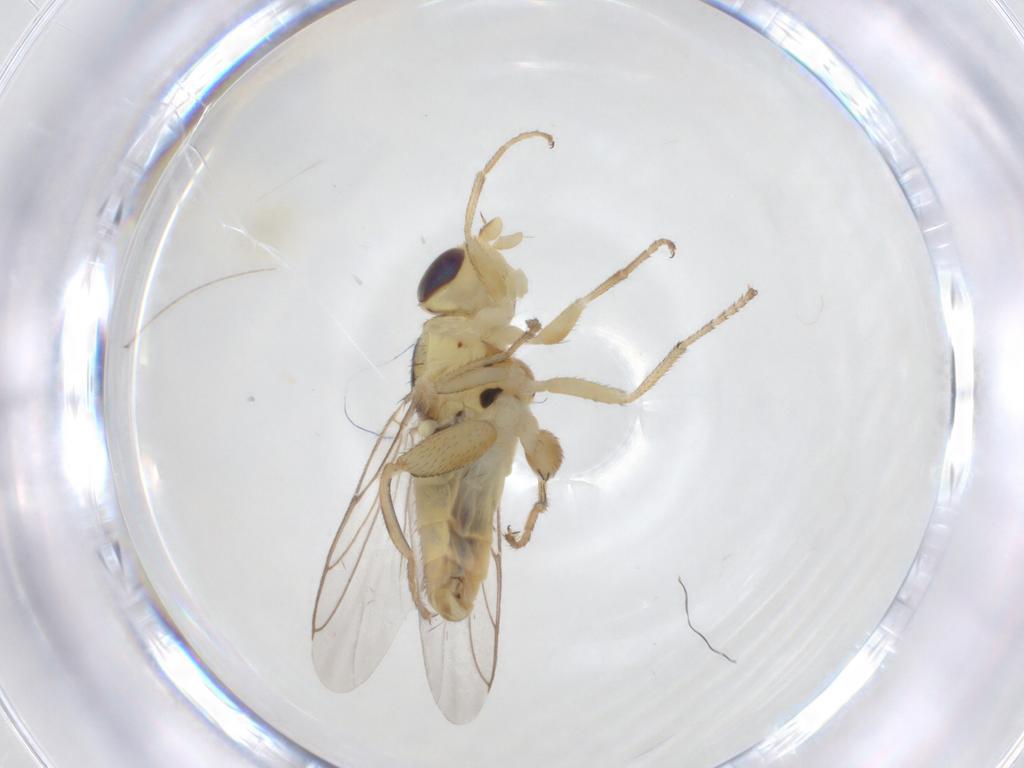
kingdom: Animalia
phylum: Arthropoda
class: Insecta
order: Diptera
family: Chloropidae
